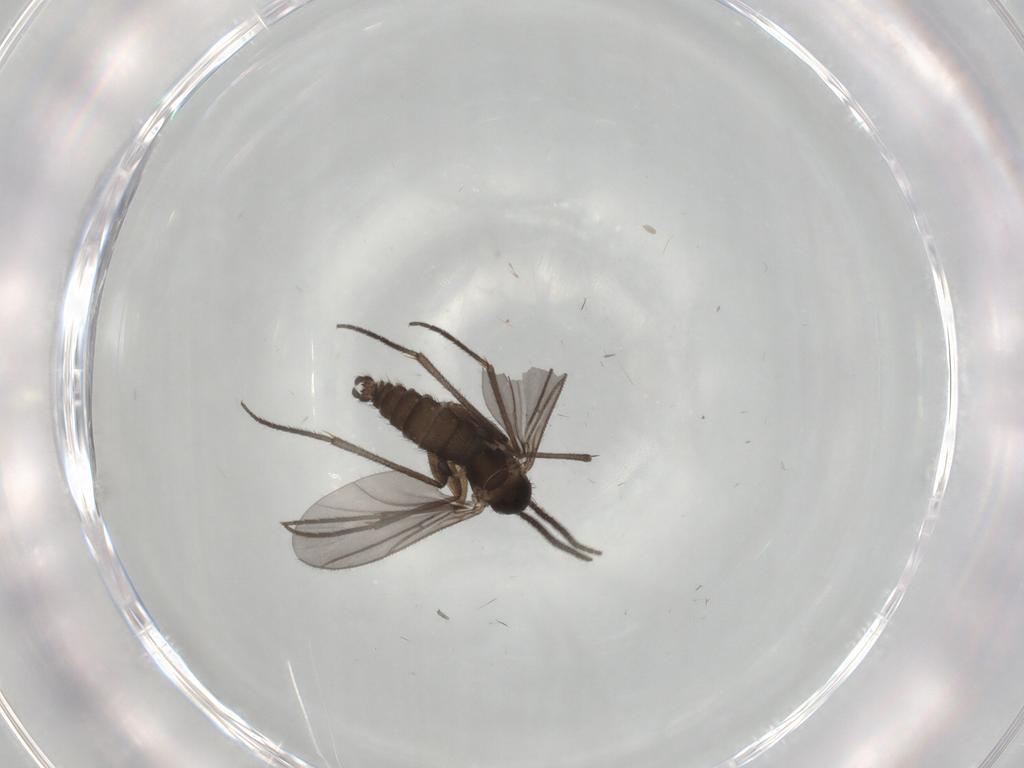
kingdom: Animalia
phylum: Arthropoda
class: Insecta
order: Diptera
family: Sciaridae
